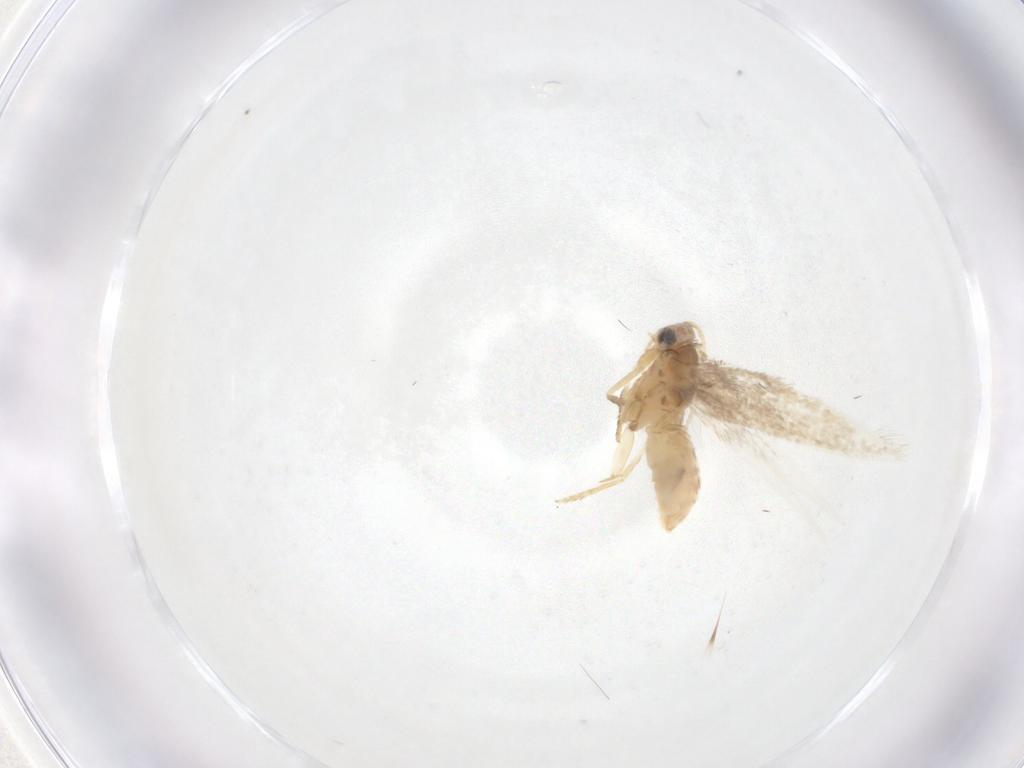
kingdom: Animalia
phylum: Arthropoda
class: Insecta
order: Lepidoptera
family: Nepticulidae
